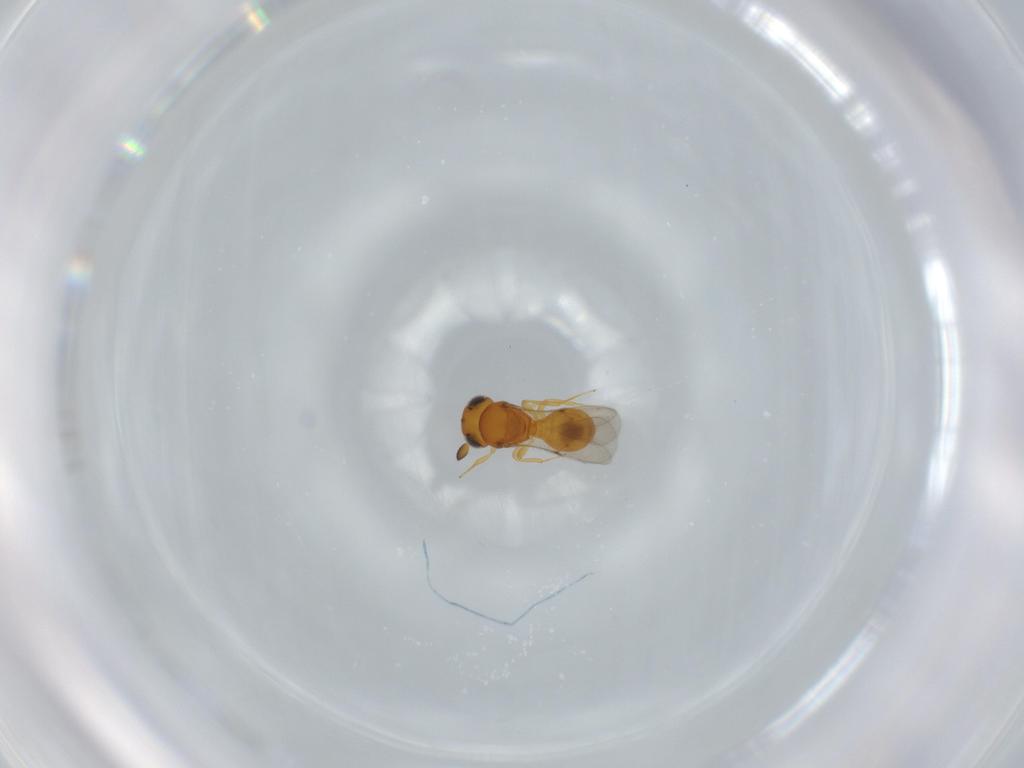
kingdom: Animalia
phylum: Arthropoda
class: Insecta
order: Hymenoptera
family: Scelionidae
